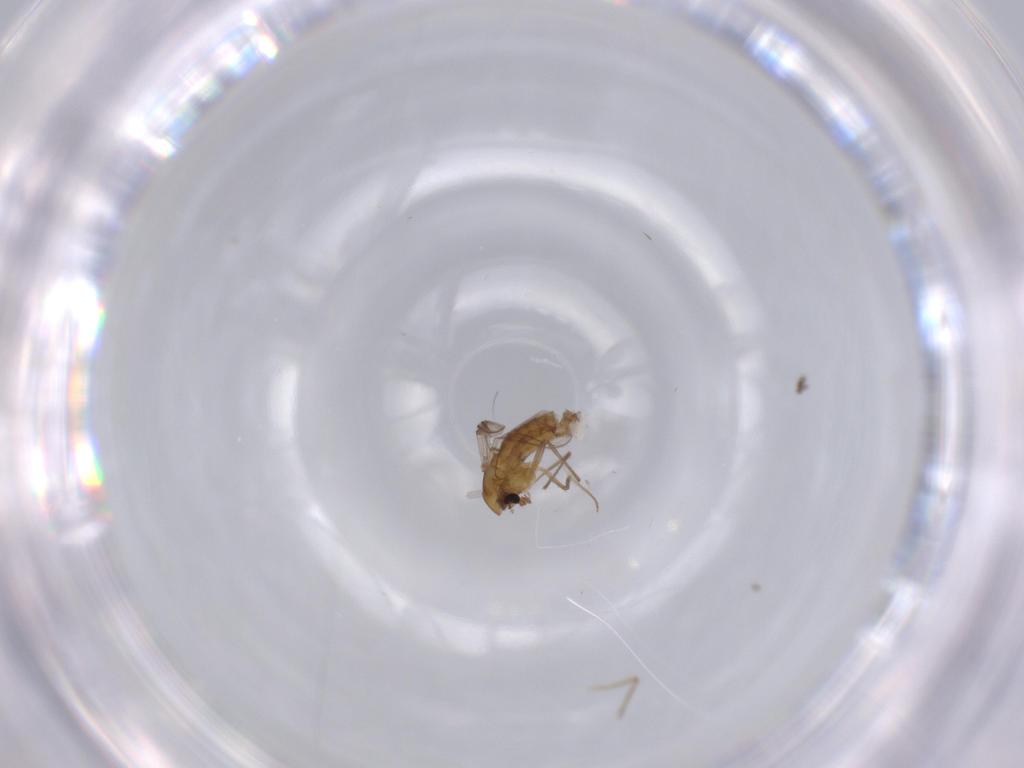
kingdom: Animalia
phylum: Arthropoda
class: Insecta
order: Diptera
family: Chironomidae
